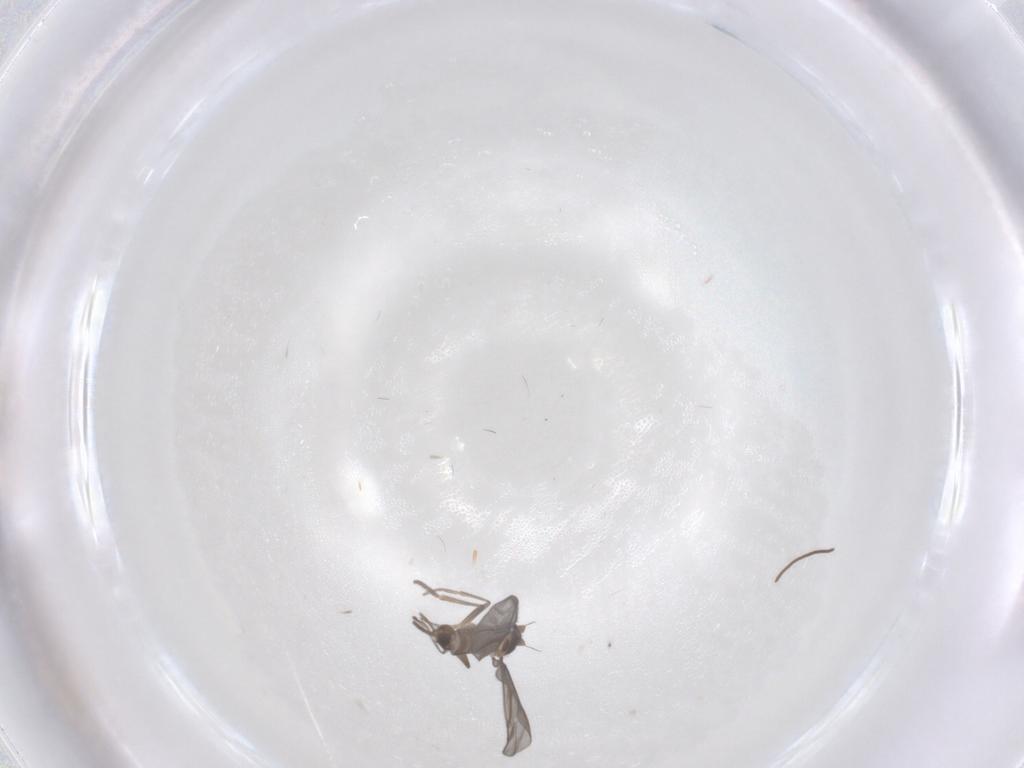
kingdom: Animalia
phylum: Arthropoda
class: Insecta
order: Diptera
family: Limoniidae
